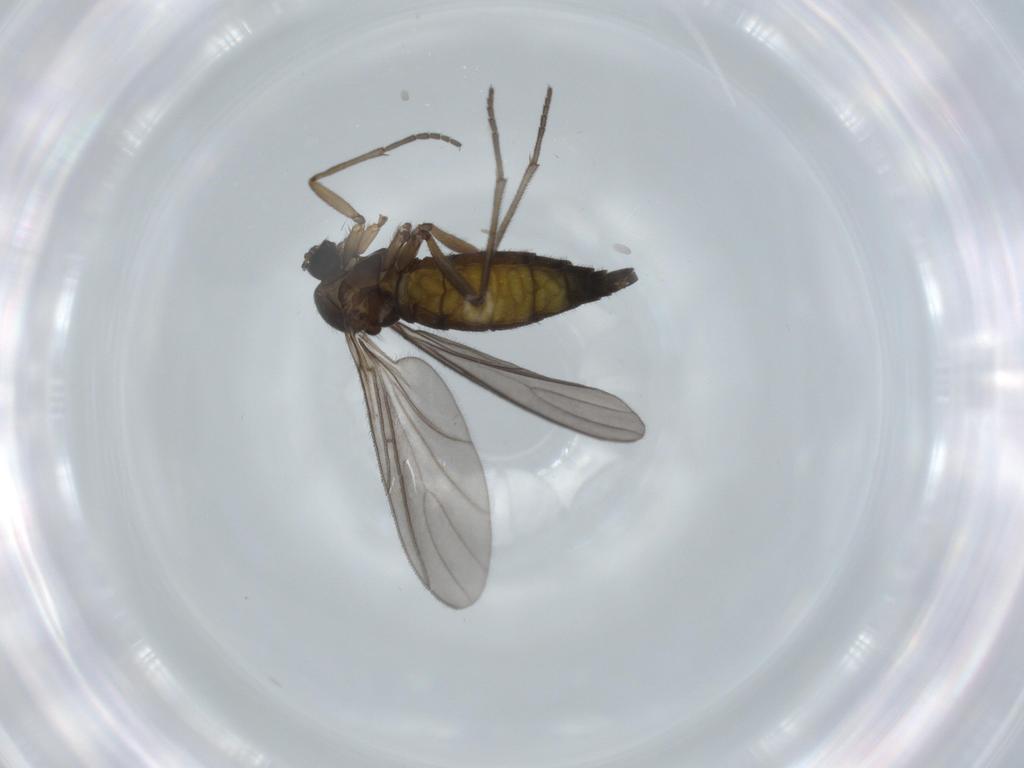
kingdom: Animalia
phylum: Arthropoda
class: Insecta
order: Diptera
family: Sciaridae
